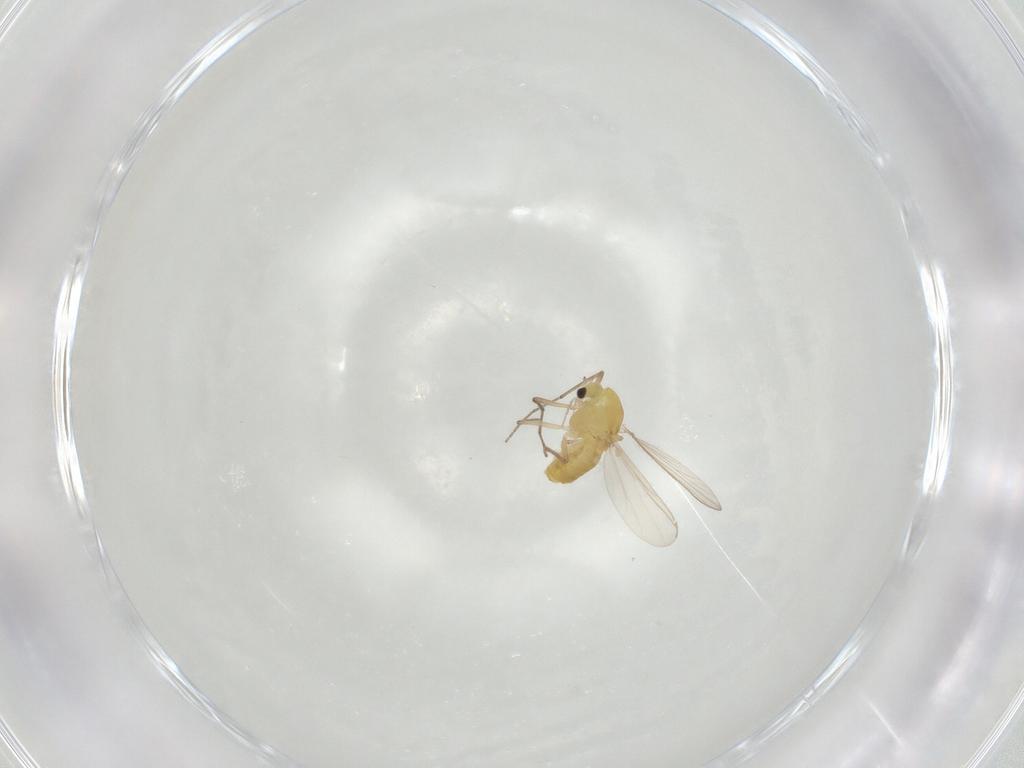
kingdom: Animalia
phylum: Arthropoda
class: Insecta
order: Diptera
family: Chironomidae
